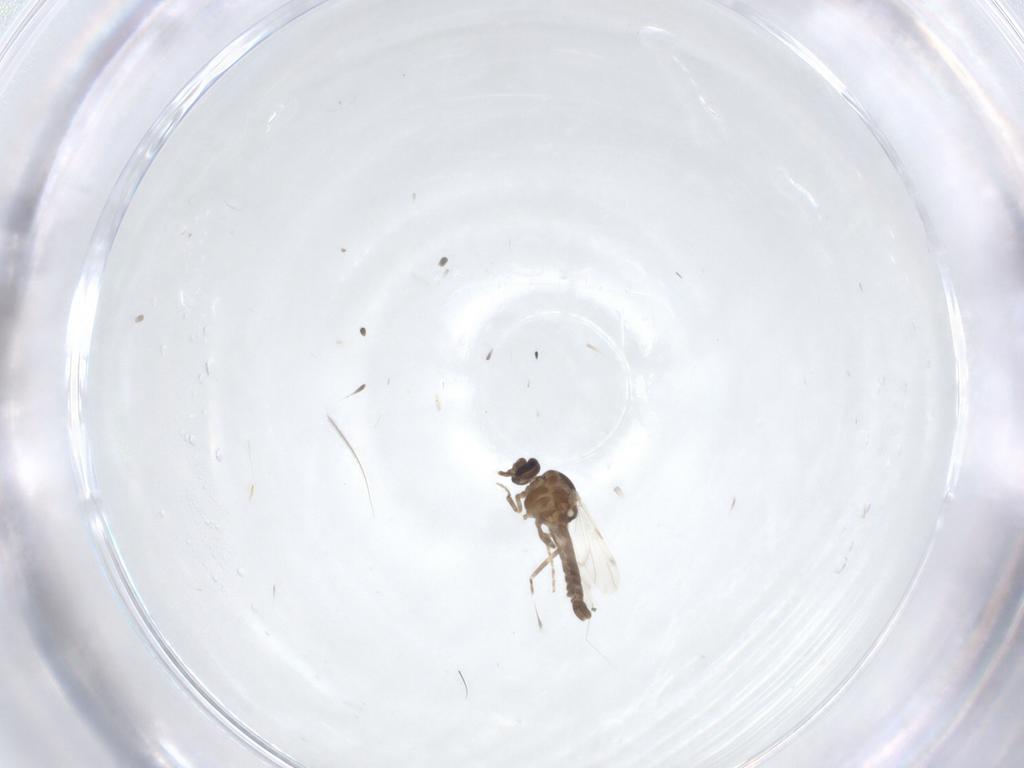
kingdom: Animalia
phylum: Arthropoda
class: Insecta
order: Diptera
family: Ceratopogonidae
